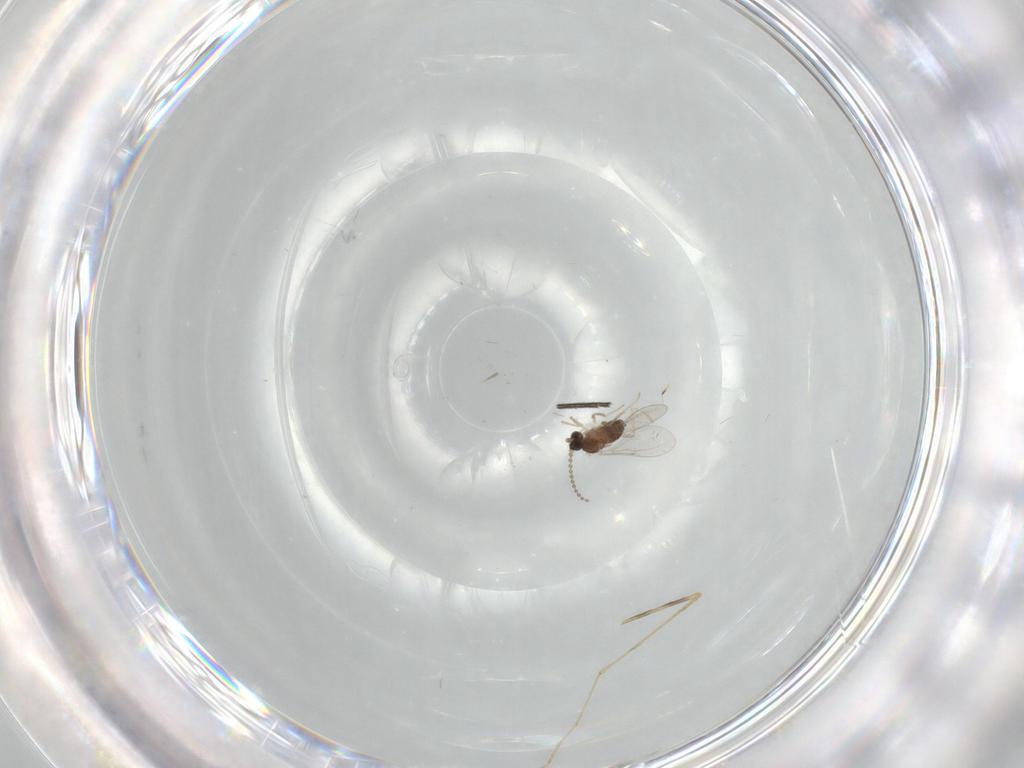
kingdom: Animalia
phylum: Arthropoda
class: Insecta
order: Diptera
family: Cecidomyiidae
